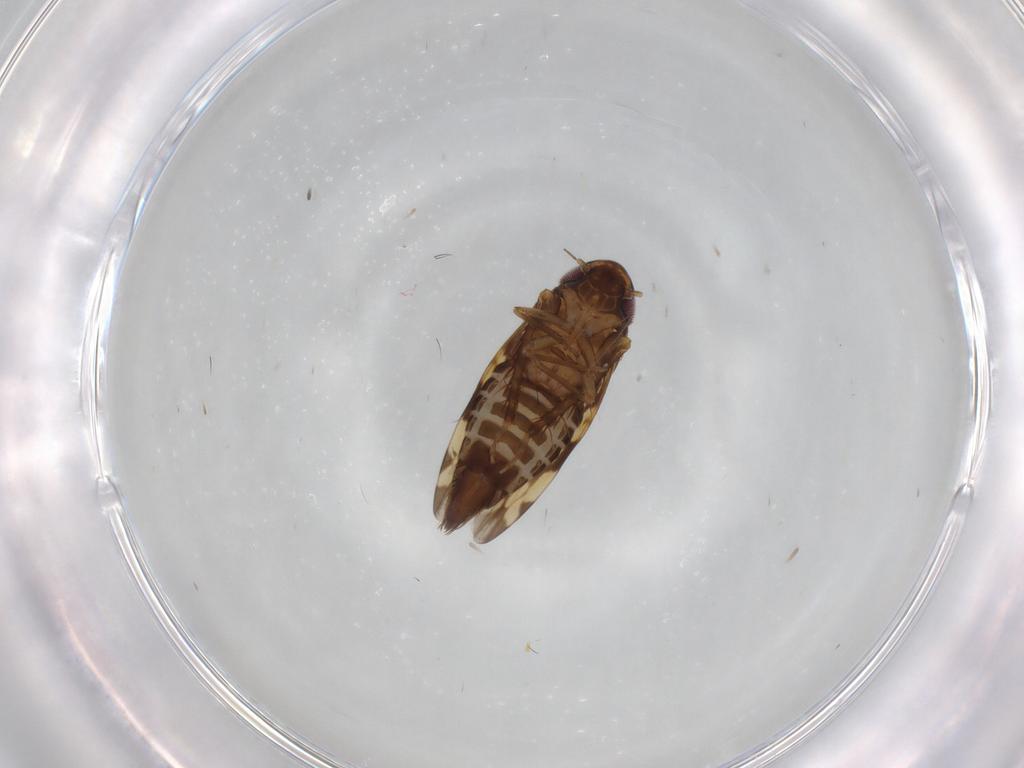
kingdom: Animalia
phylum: Arthropoda
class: Insecta
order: Hemiptera
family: Cicadellidae
